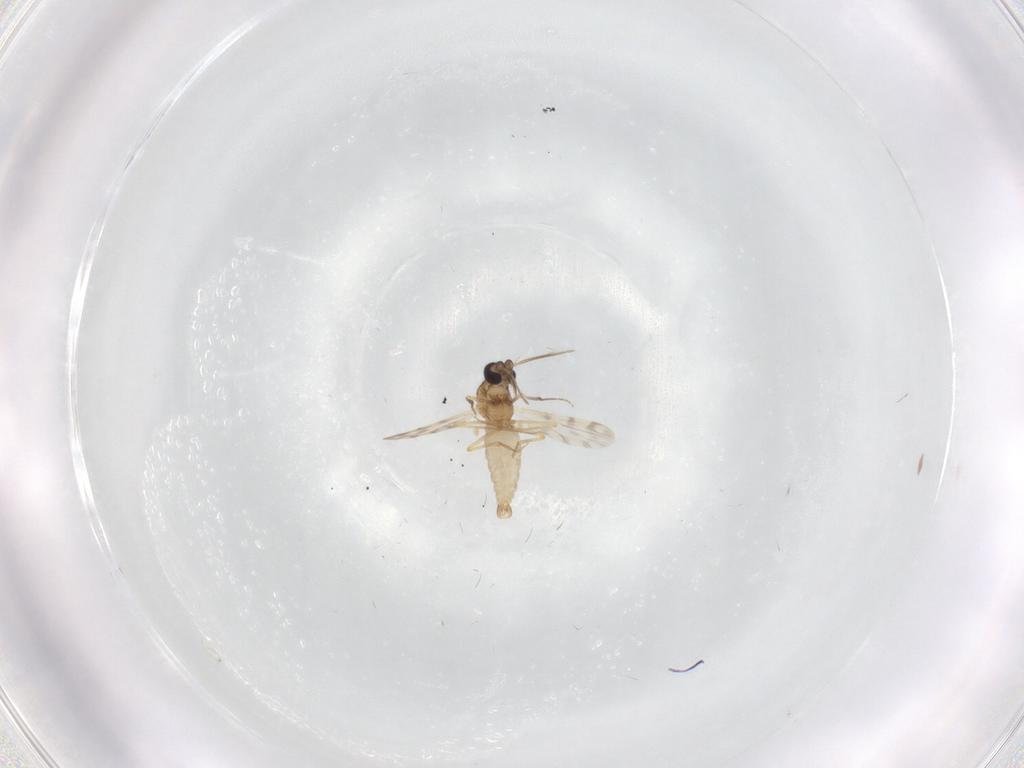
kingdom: Animalia
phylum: Arthropoda
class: Insecta
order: Diptera
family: Ceratopogonidae
